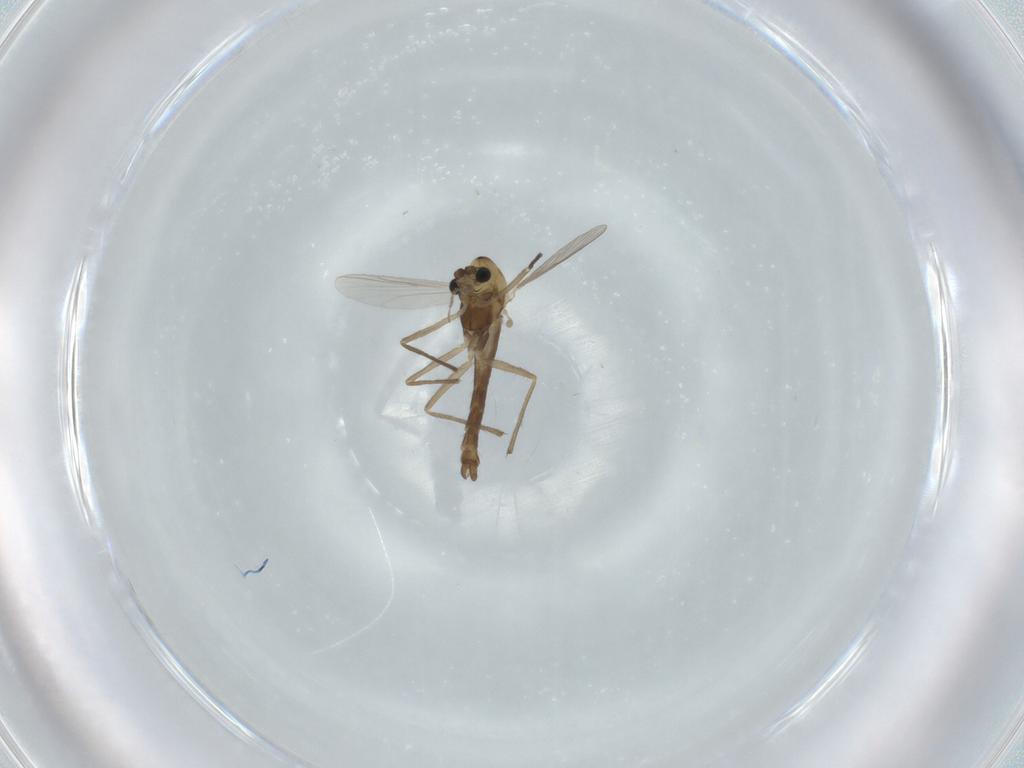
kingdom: Animalia
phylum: Arthropoda
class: Insecta
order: Diptera
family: Chironomidae
